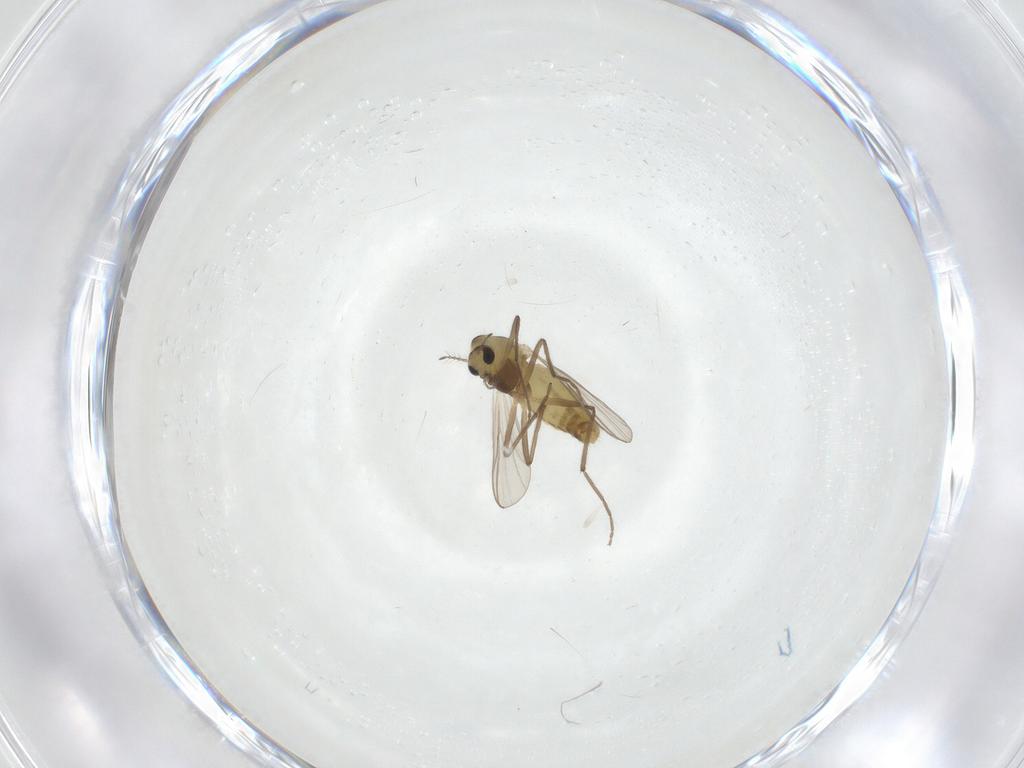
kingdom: Animalia
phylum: Arthropoda
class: Insecta
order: Diptera
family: Chironomidae
